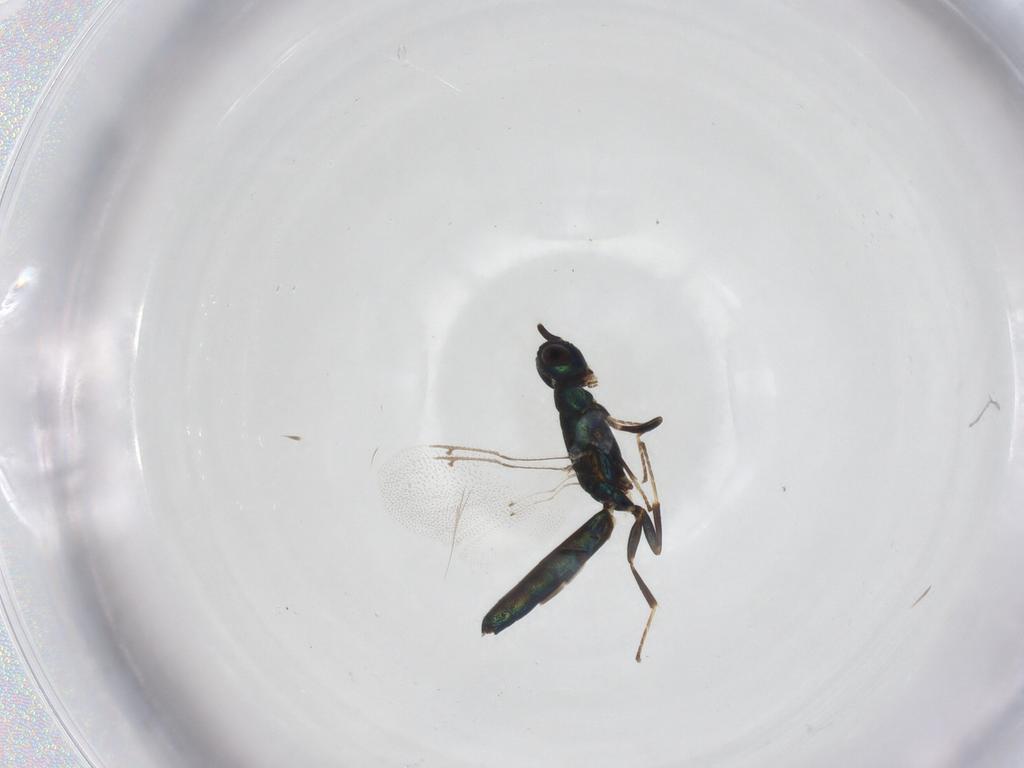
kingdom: Animalia
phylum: Arthropoda
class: Insecta
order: Hymenoptera
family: Pteromalidae
